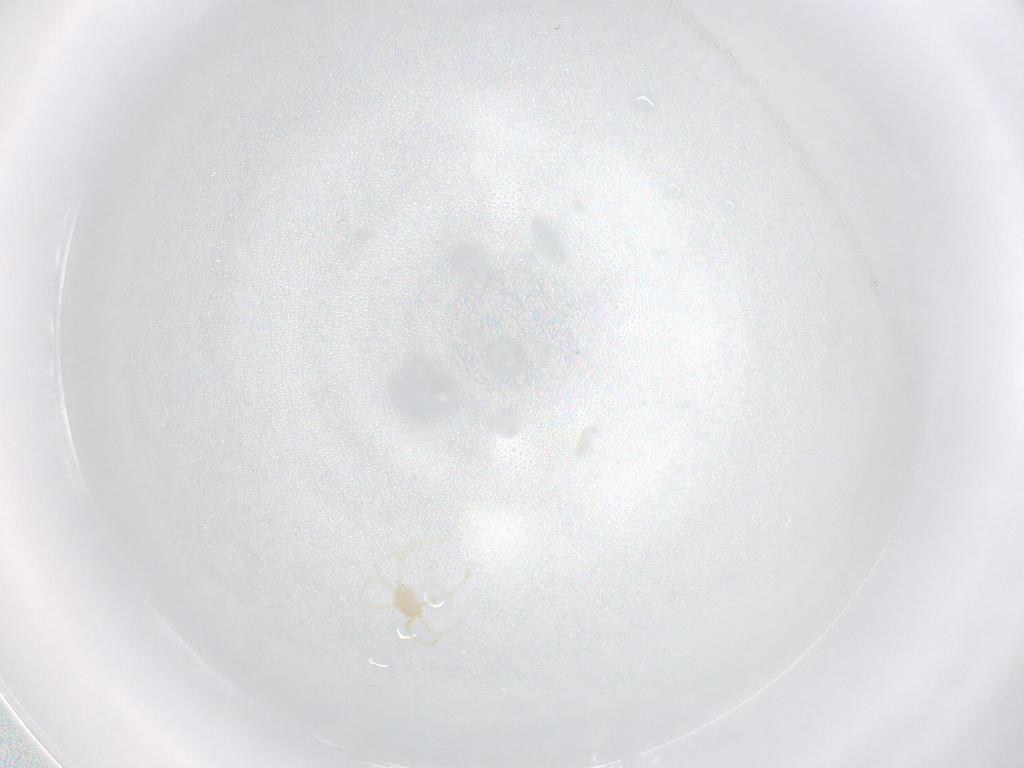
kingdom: Animalia
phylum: Arthropoda
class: Arachnida
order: Trombidiformes
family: Erythraeidae
